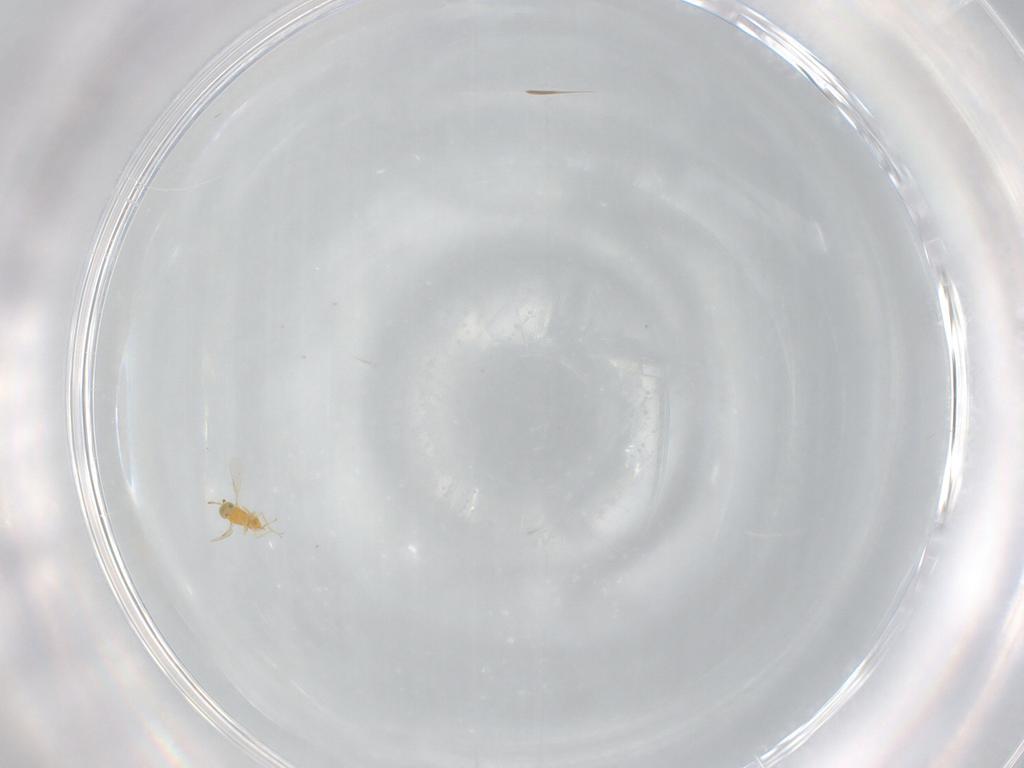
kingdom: Animalia
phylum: Arthropoda
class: Insecta
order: Hymenoptera
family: Aphelinidae
